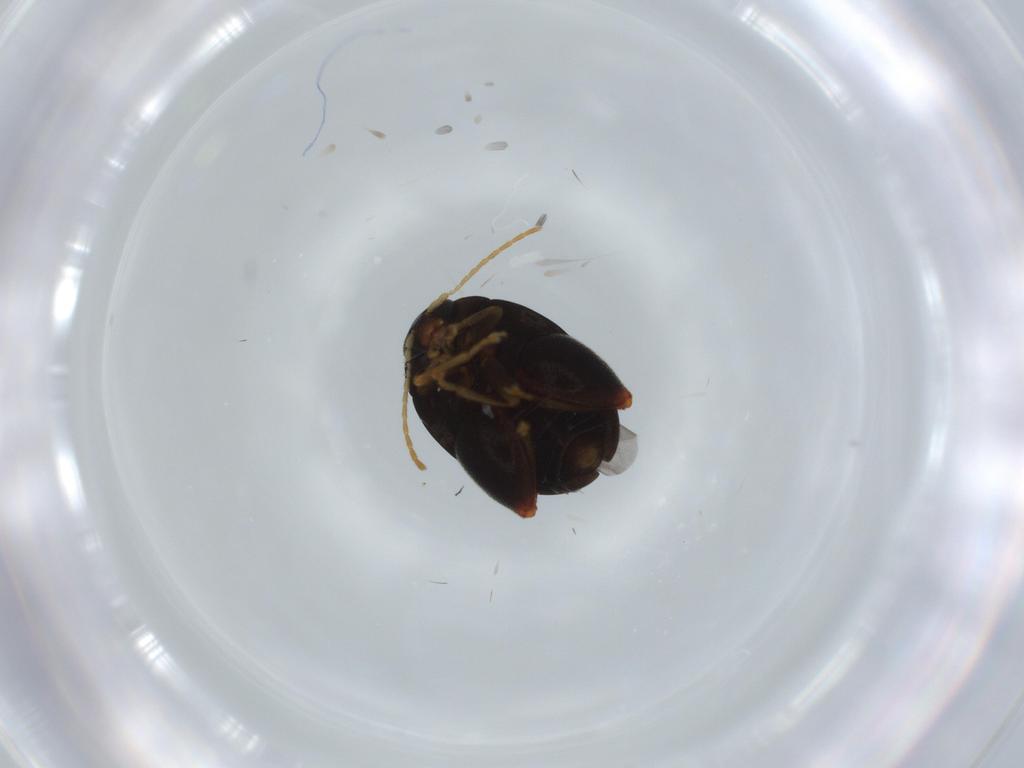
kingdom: Animalia
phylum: Arthropoda
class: Insecta
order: Coleoptera
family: Chrysomelidae
